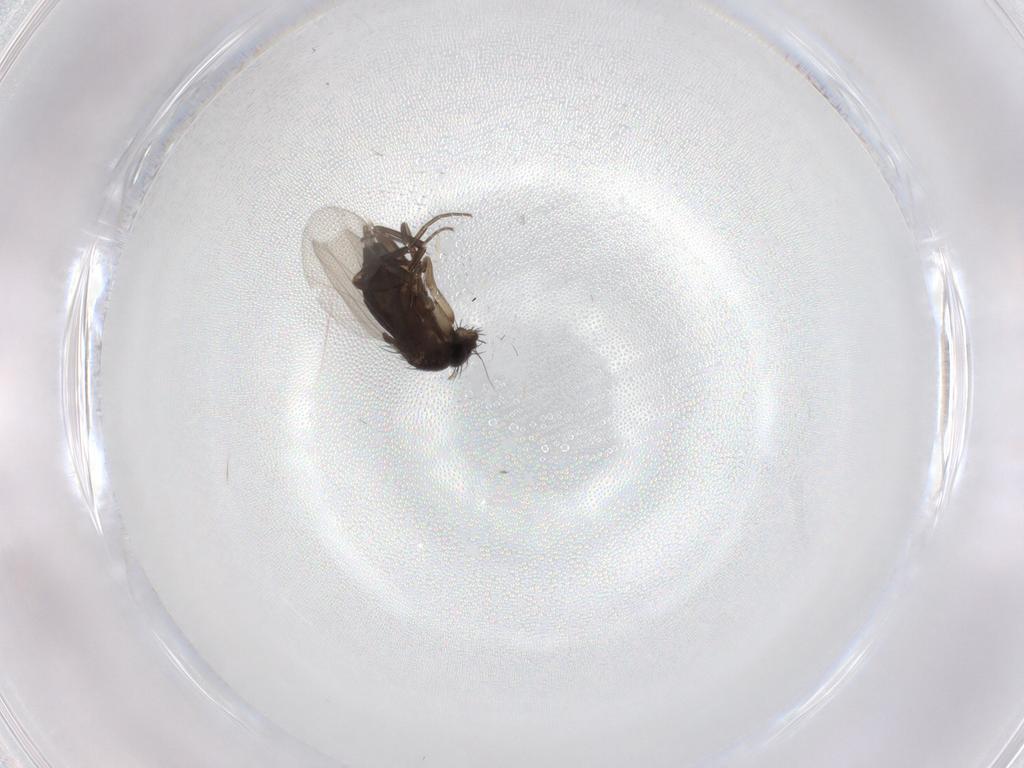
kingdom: Animalia
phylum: Arthropoda
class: Insecta
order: Diptera
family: Phoridae
